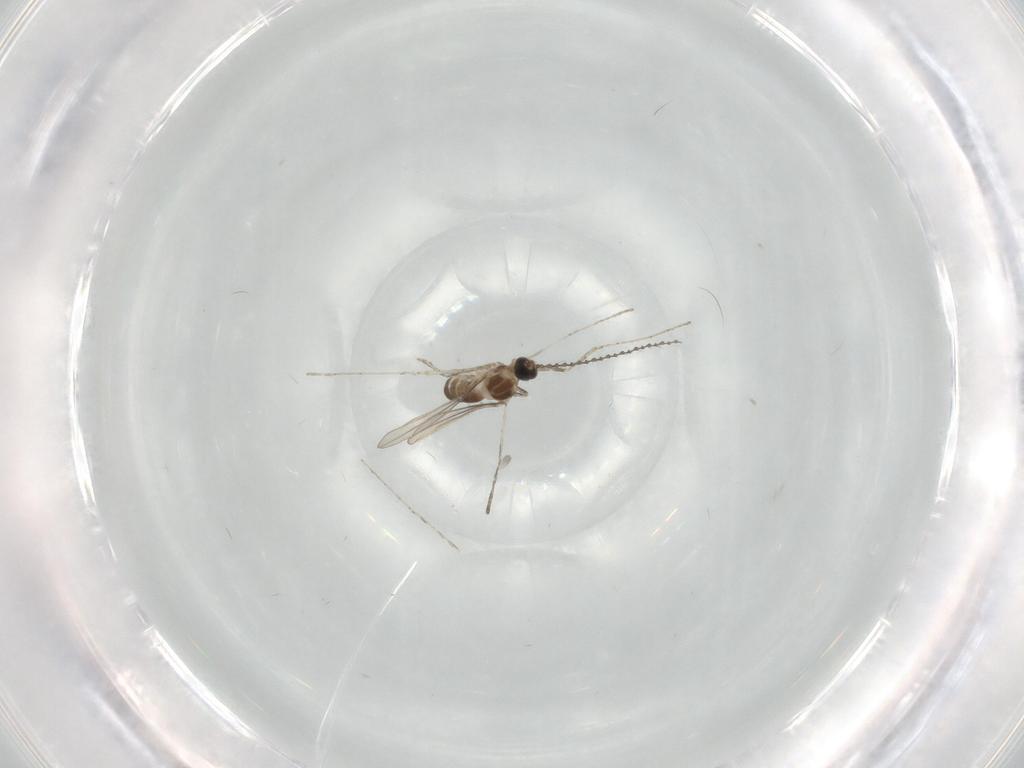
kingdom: Animalia
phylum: Arthropoda
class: Insecta
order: Diptera
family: Cecidomyiidae
